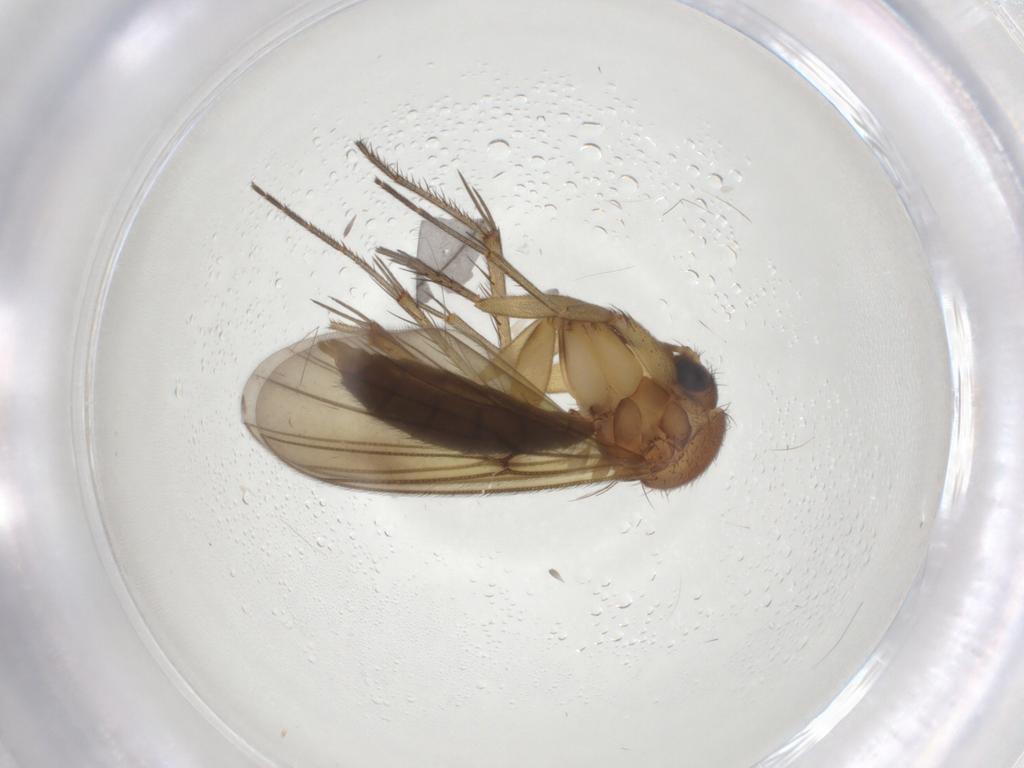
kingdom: Animalia
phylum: Arthropoda
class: Insecta
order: Diptera
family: Mycetophilidae
